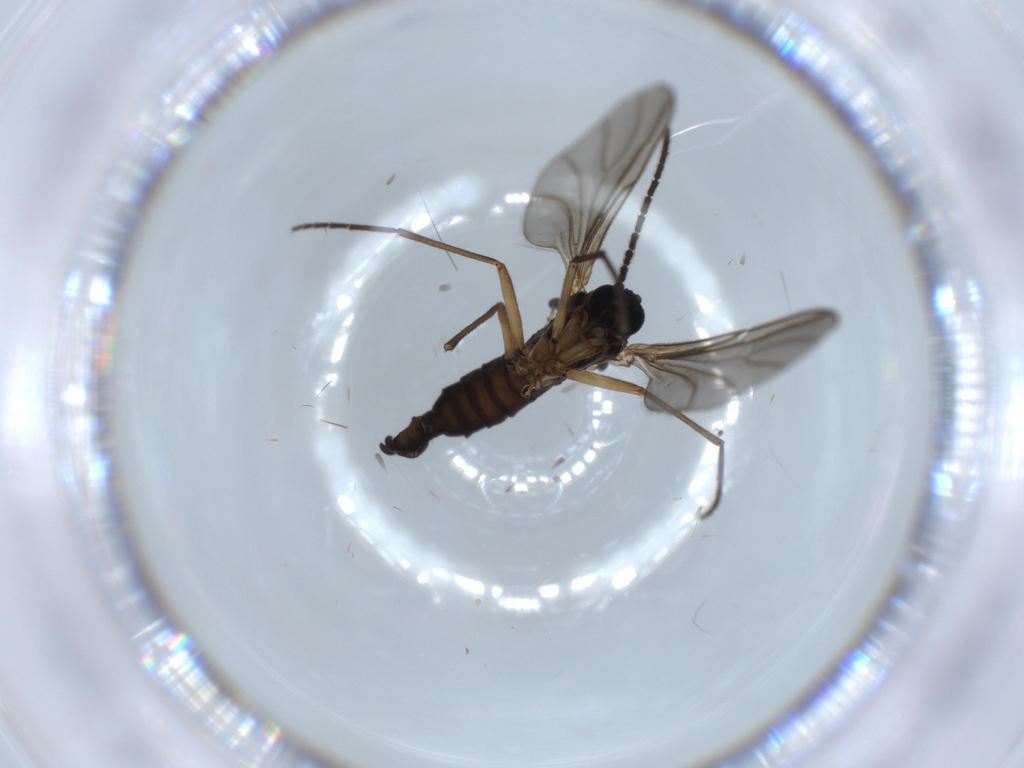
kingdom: Animalia
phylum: Arthropoda
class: Insecta
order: Diptera
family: Sciaridae
